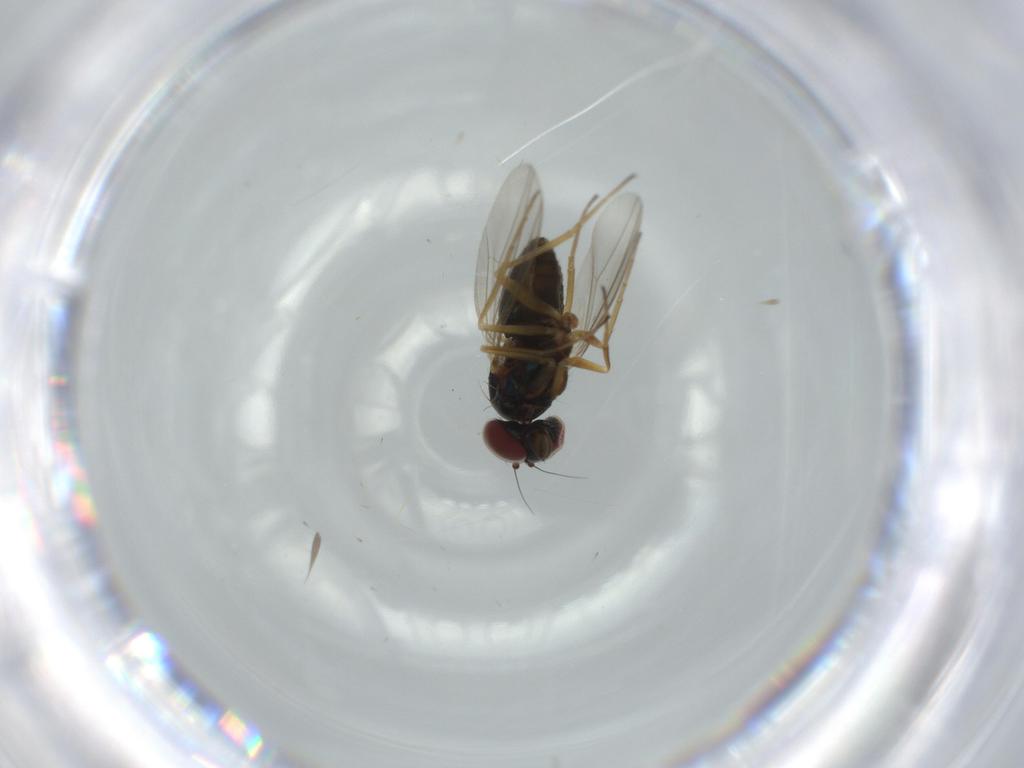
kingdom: Animalia
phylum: Arthropoda
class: Insecta
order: Diptera
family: Dolichopodidae
